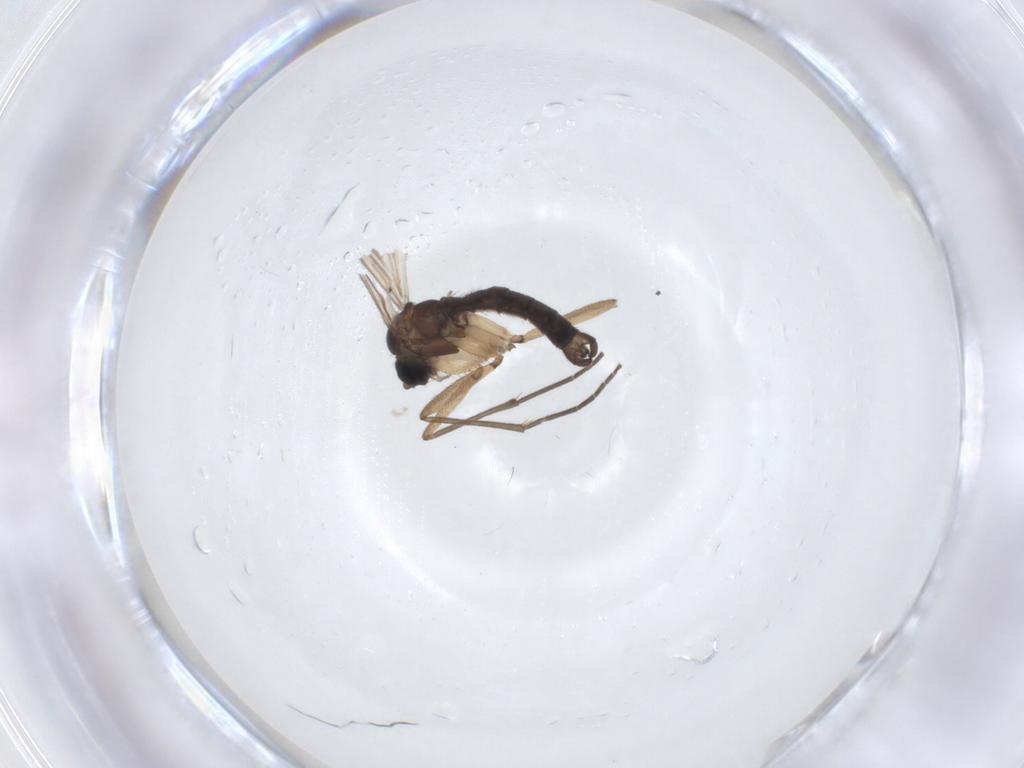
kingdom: Animalia
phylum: Arthropoda
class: Insecta
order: Diptera
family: Sciaridae
